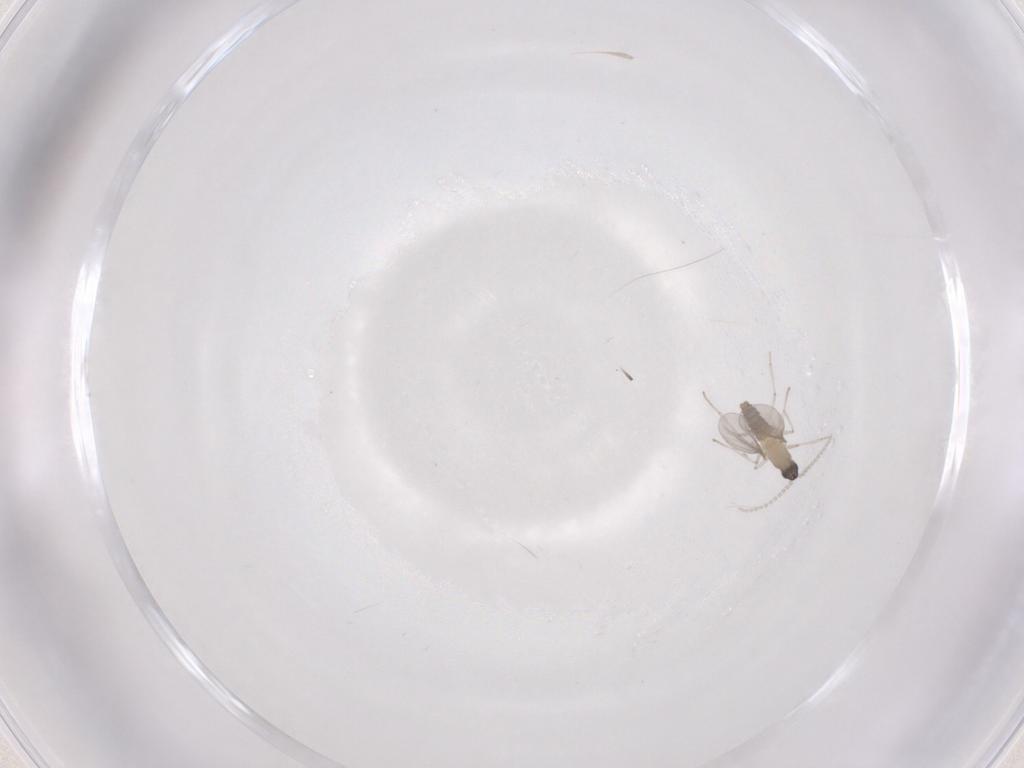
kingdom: Animalia
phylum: Arthropoda
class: Insecta
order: Diptera
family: Cecidomyiidae
